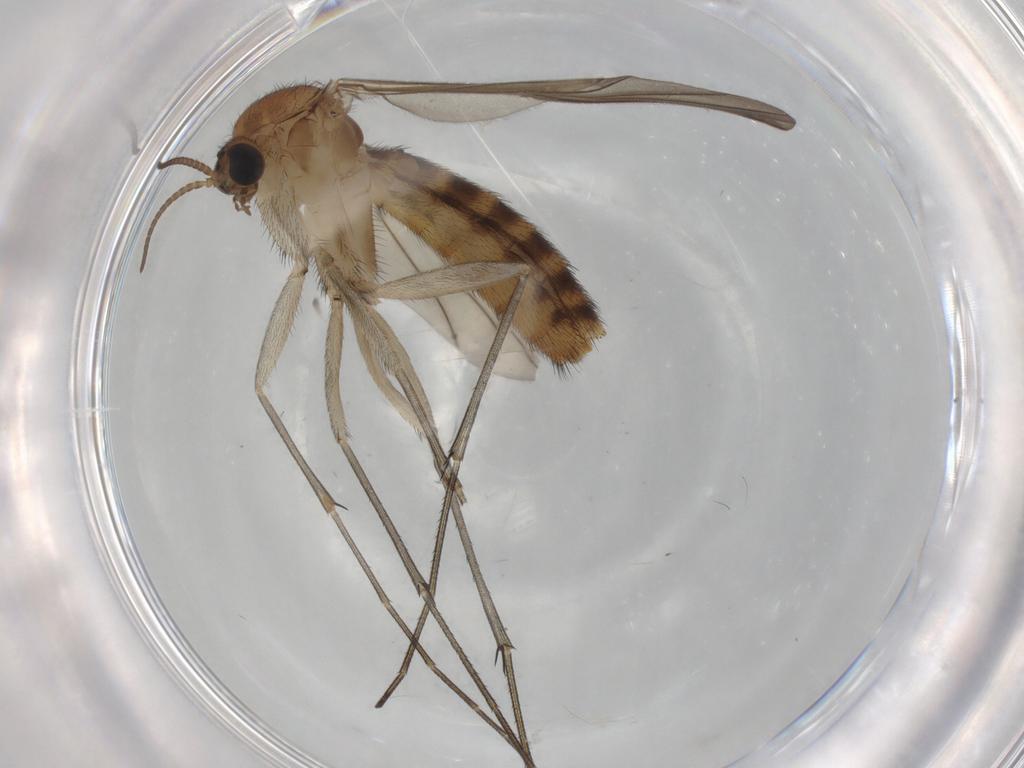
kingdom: Animalia
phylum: Arthropoda
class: Insecta
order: Diptera
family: Keroplatidae
